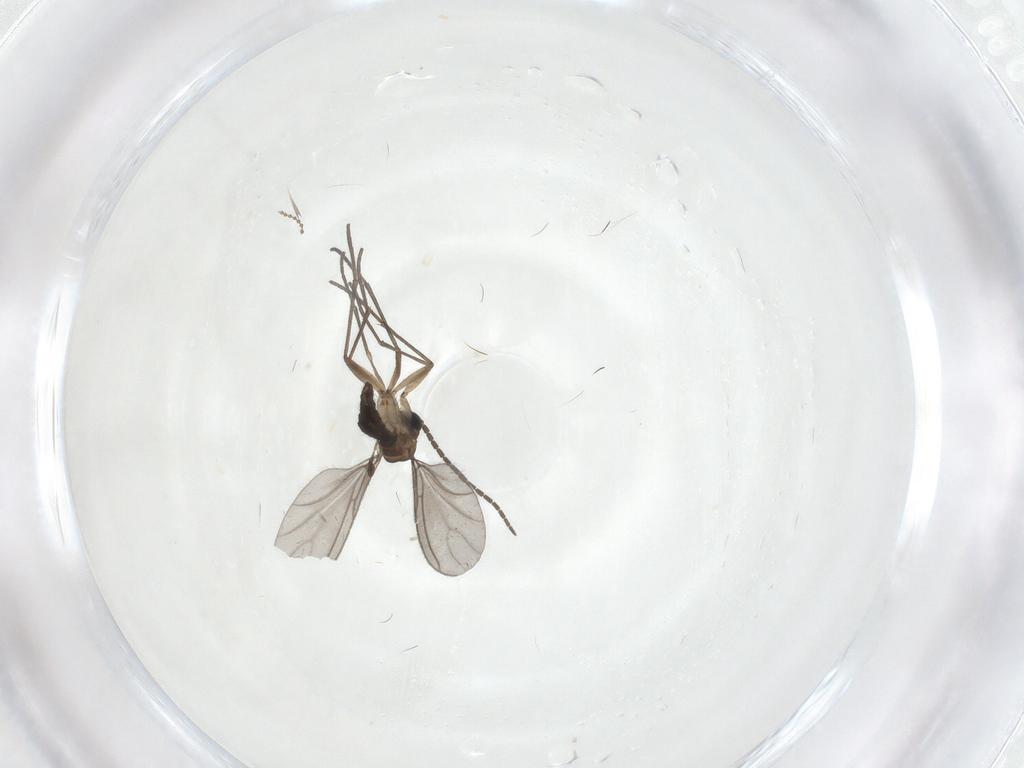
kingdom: Animalia
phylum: Arthropoda
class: Insecta
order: Diptera
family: Sciaridae
